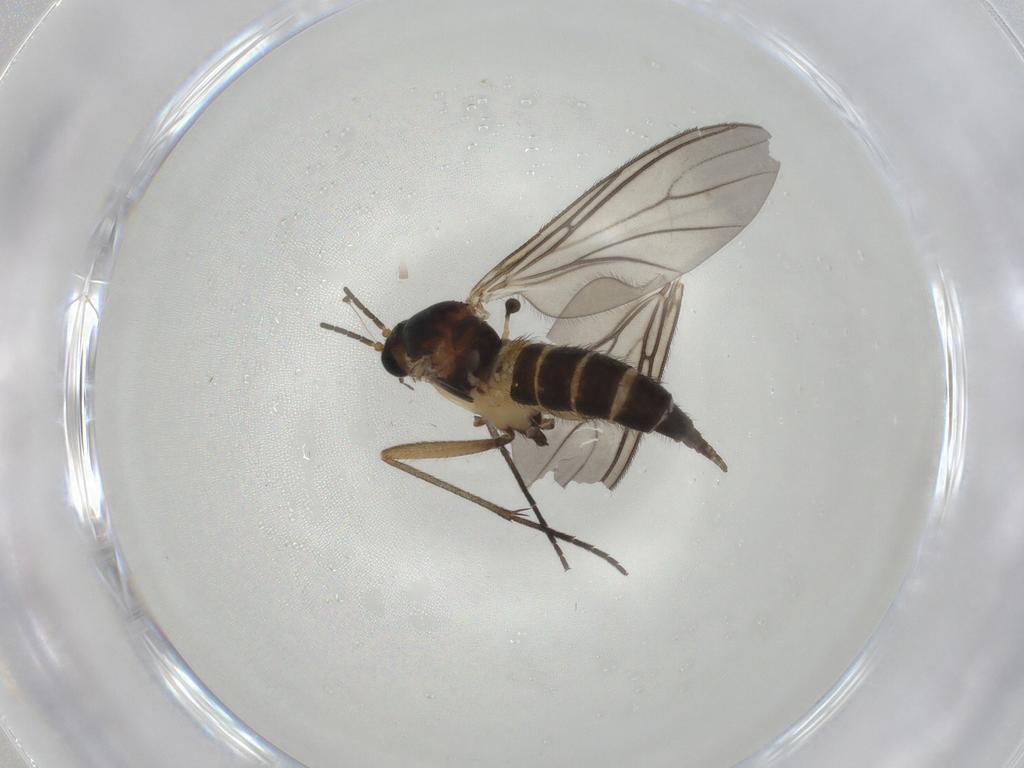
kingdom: Animalia
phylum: Arthropoda
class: Insecta
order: Diptera
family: Sciaridae
